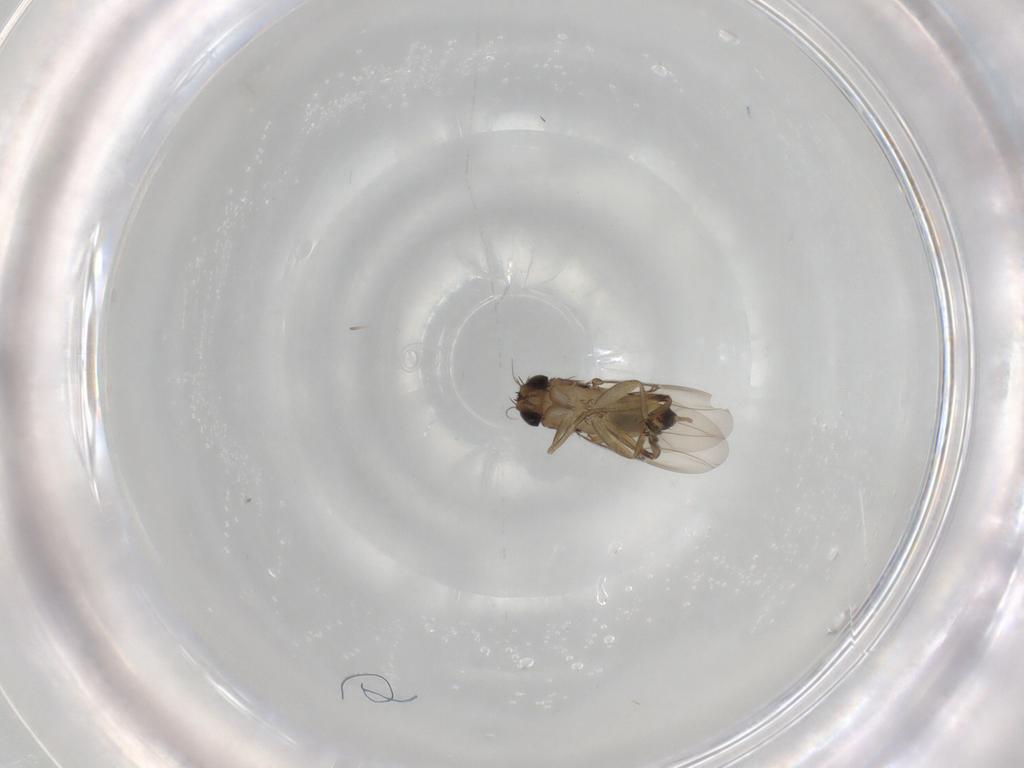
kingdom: Animalia
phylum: Arthropoda
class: Insecta
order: Diptera
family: Phoridae
